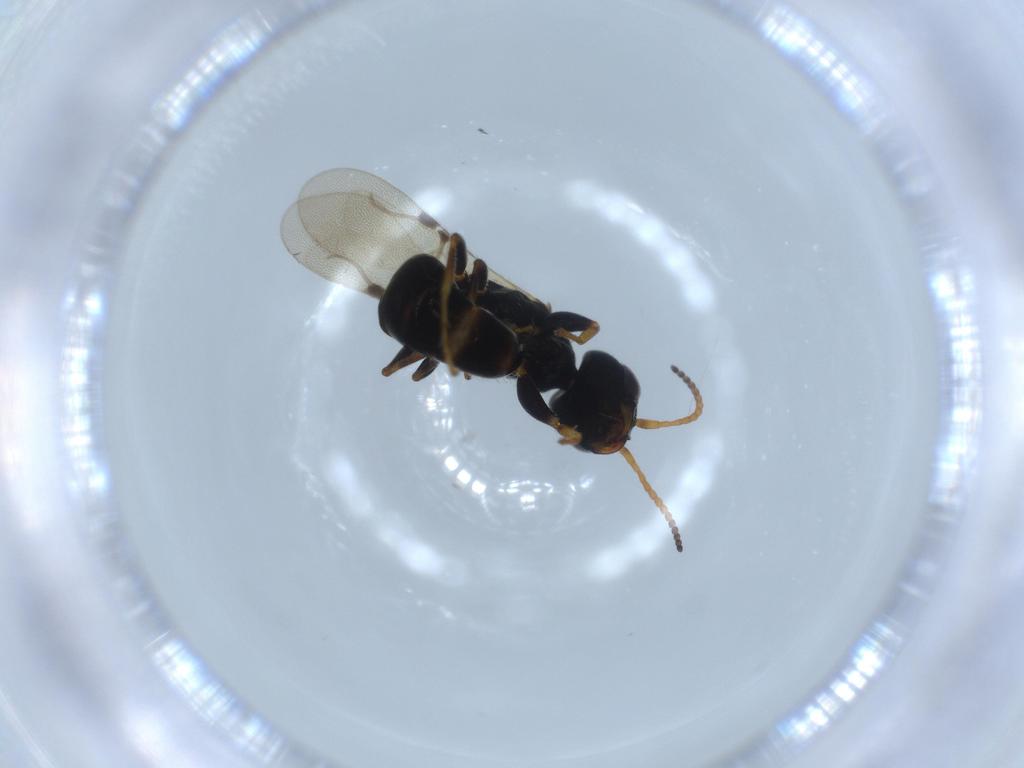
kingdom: Animalia
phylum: Arthropoda
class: Insecta
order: Hymenoptera
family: Bethylidae
